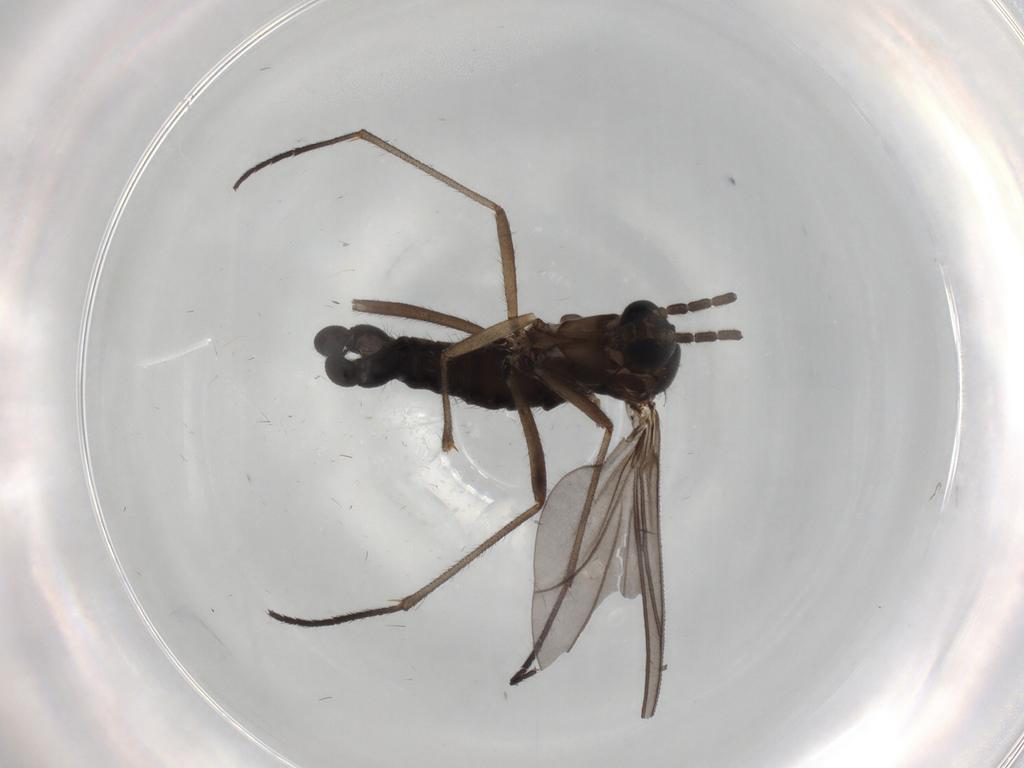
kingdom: Animalia
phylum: Arthropoda
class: Insecta
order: Diptera
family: Sciaridae
